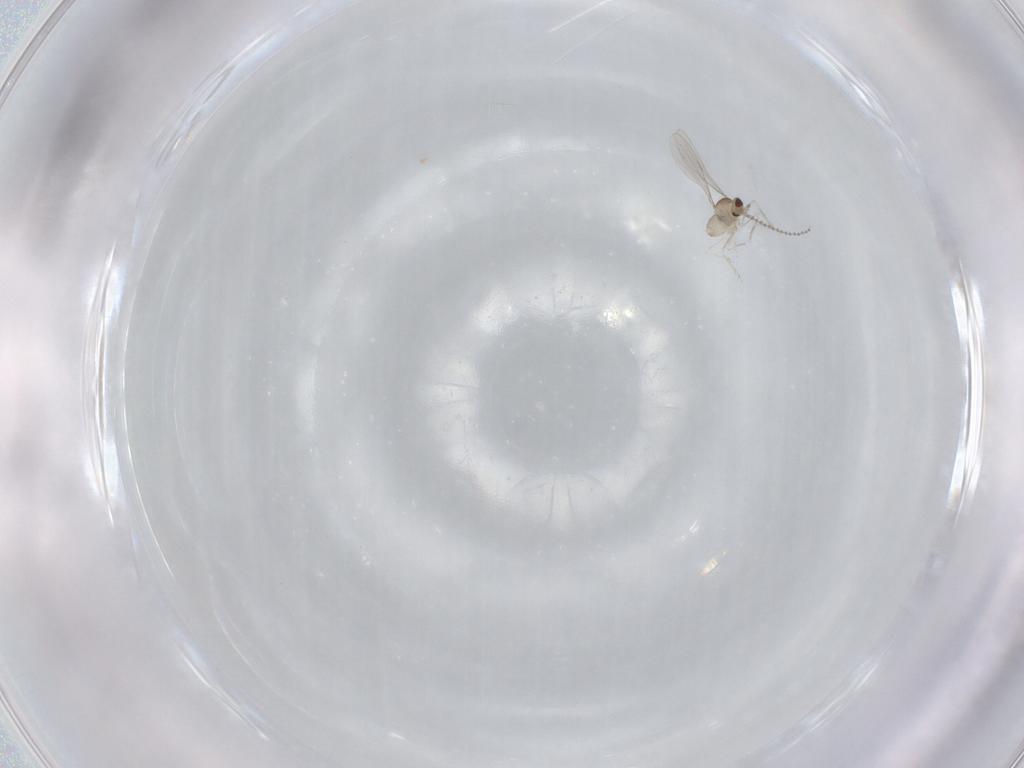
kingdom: Animalia
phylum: Arthropoda
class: Insecta
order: Diptera
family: Cecidomyiidae
